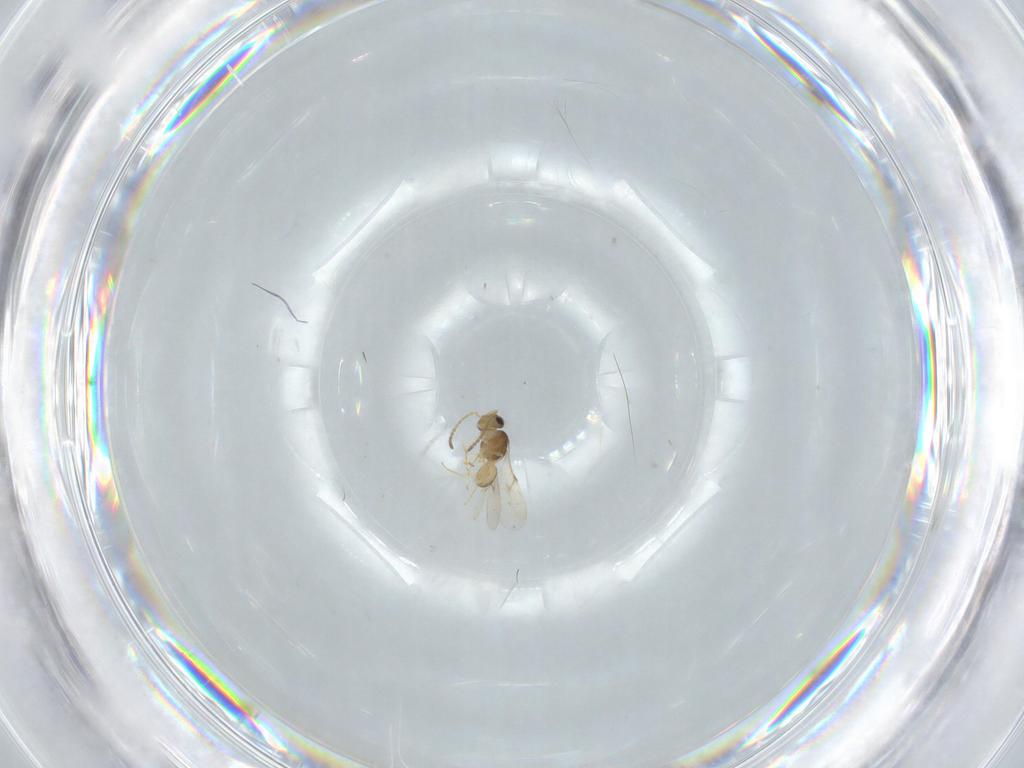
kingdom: Animalia
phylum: Arthropoda
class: Insecta
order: Hymenoptera
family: Scelionidae
